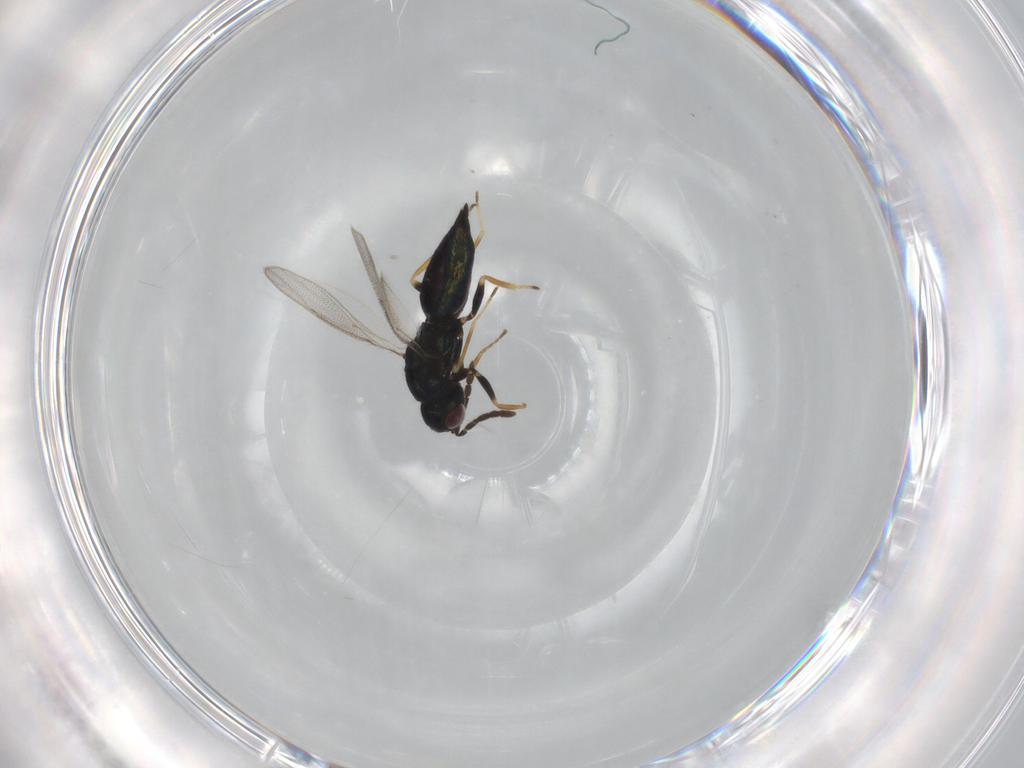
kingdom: Animalia
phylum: Arthropoda
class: Insecta
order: Hymenoptera
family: Eulophidae
